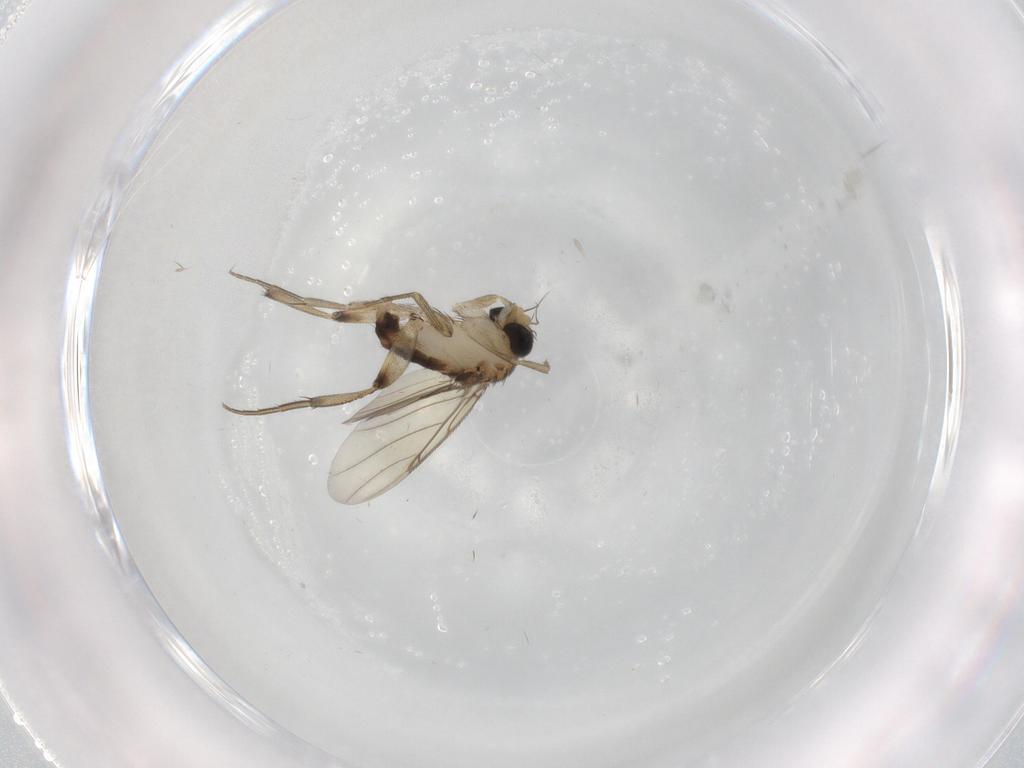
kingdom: Animalia
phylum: Arthropoda
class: Insecta
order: Diptera
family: Phoridae
